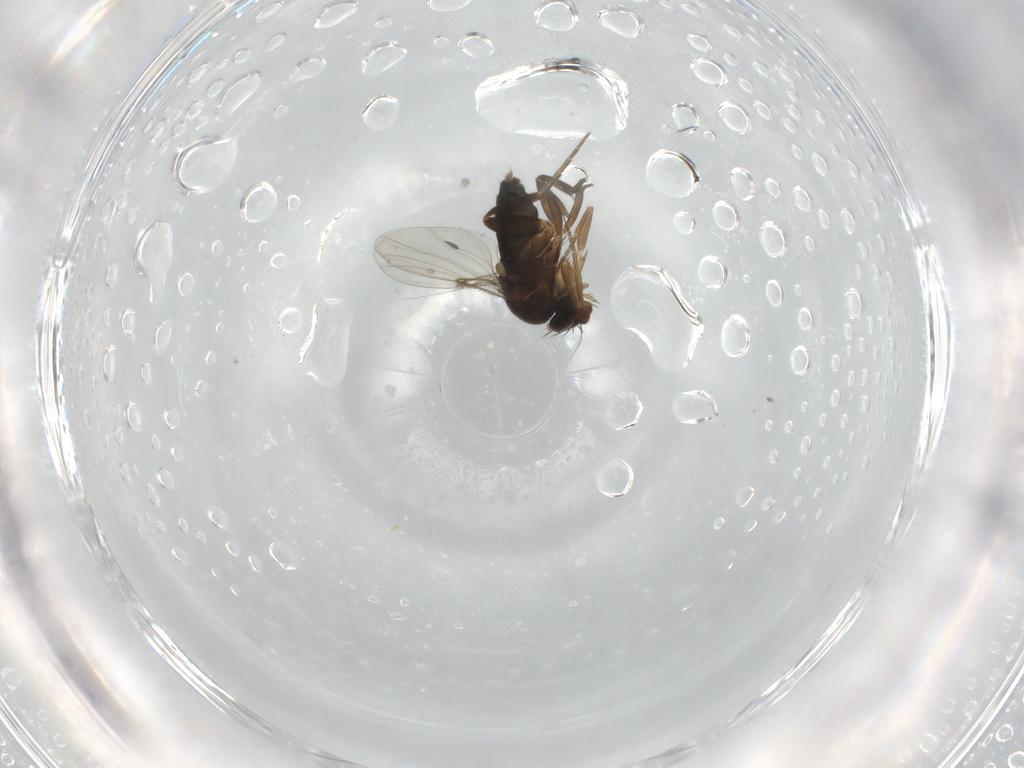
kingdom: Animalia
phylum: Arthropoda
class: Insecta
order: Diptera
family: Phoridae
